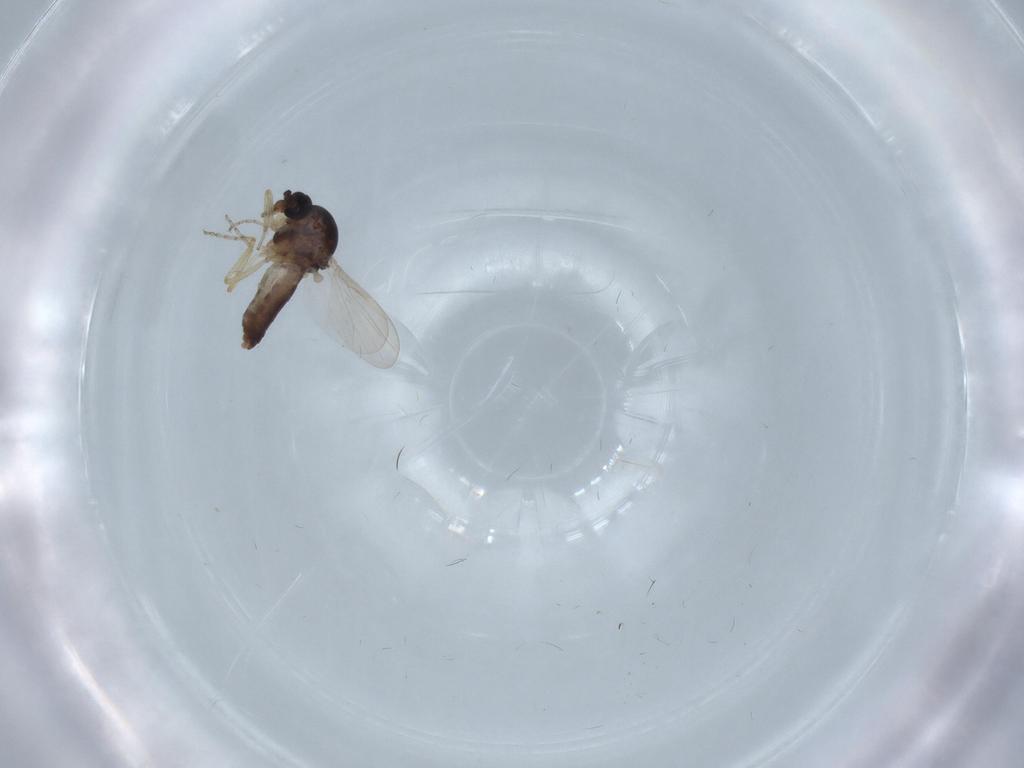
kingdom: Animalia
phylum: Arthropoda
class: Insecta
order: Diptera
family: Ceratopogonidae
